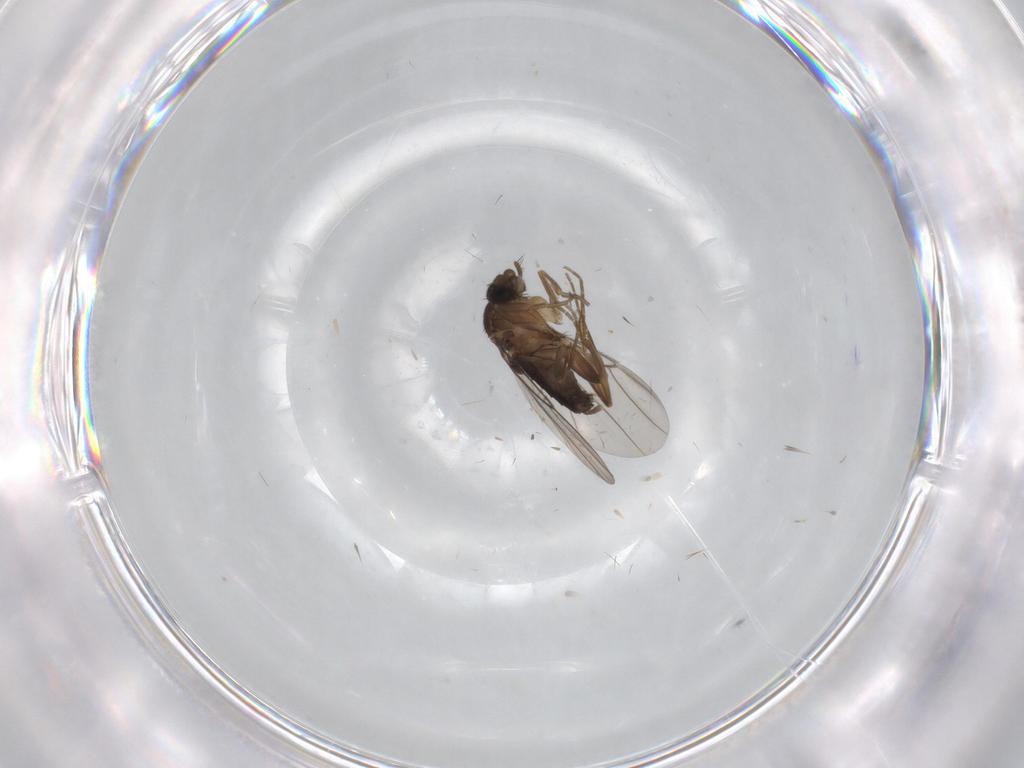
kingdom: Animalia
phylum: Arthropoda
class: Insecta
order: Diptera
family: Phoridae
